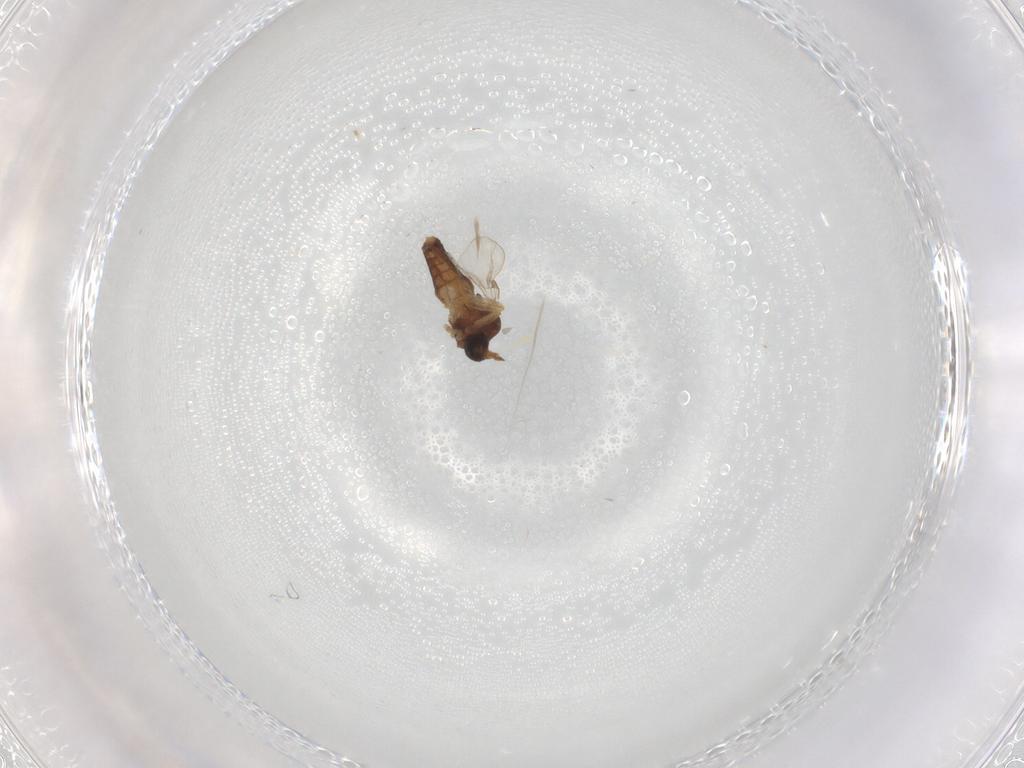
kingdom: Animalia
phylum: Arthropoda
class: Insecta
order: Diptera
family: Ceratopogonidae
